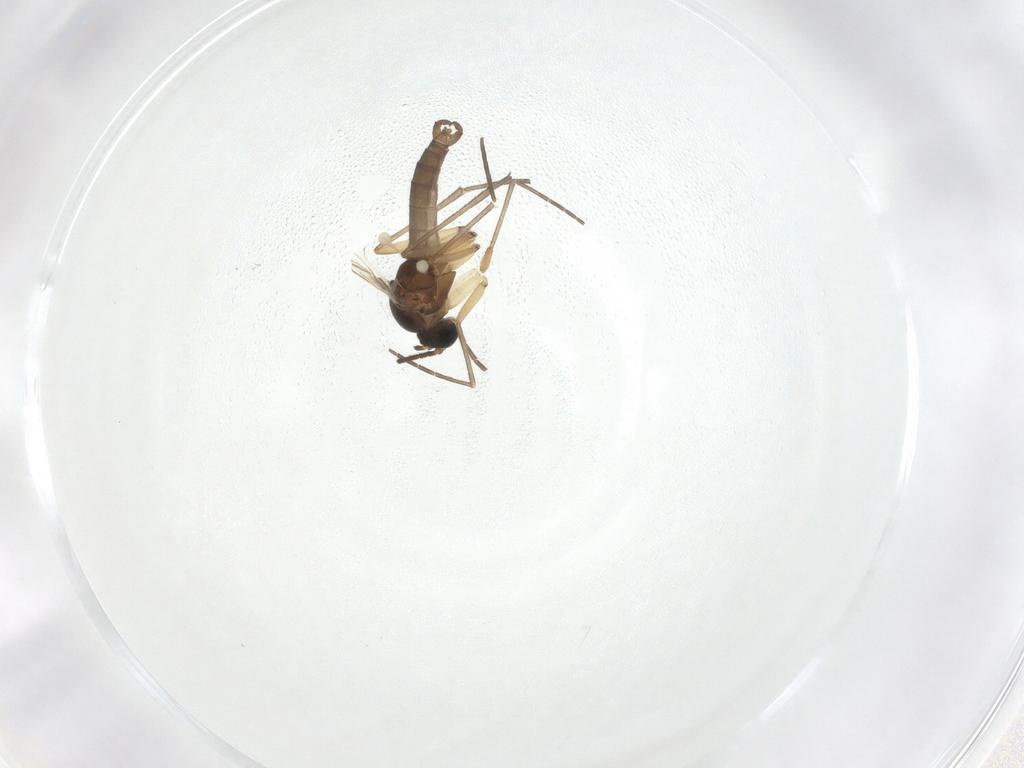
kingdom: Animalia
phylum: Arthropoda
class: Insecta
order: Diptera
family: Sciaridae
